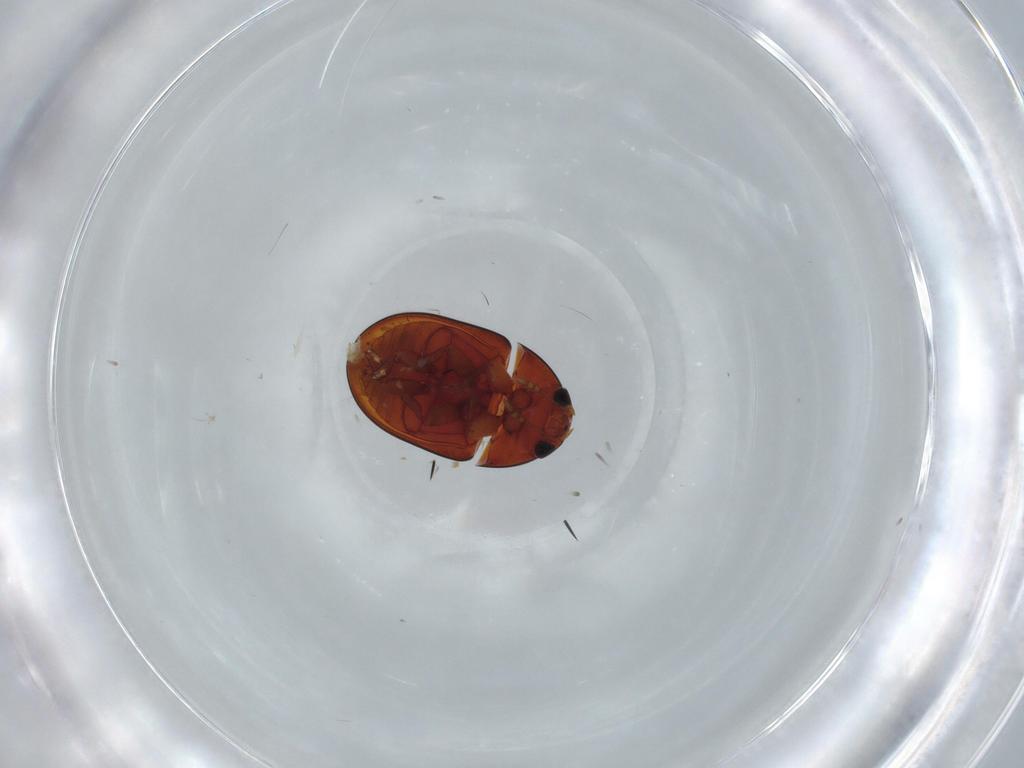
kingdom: Animalia
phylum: Arthropoda
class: Insecta
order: Coleoptera
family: Phalacridae
